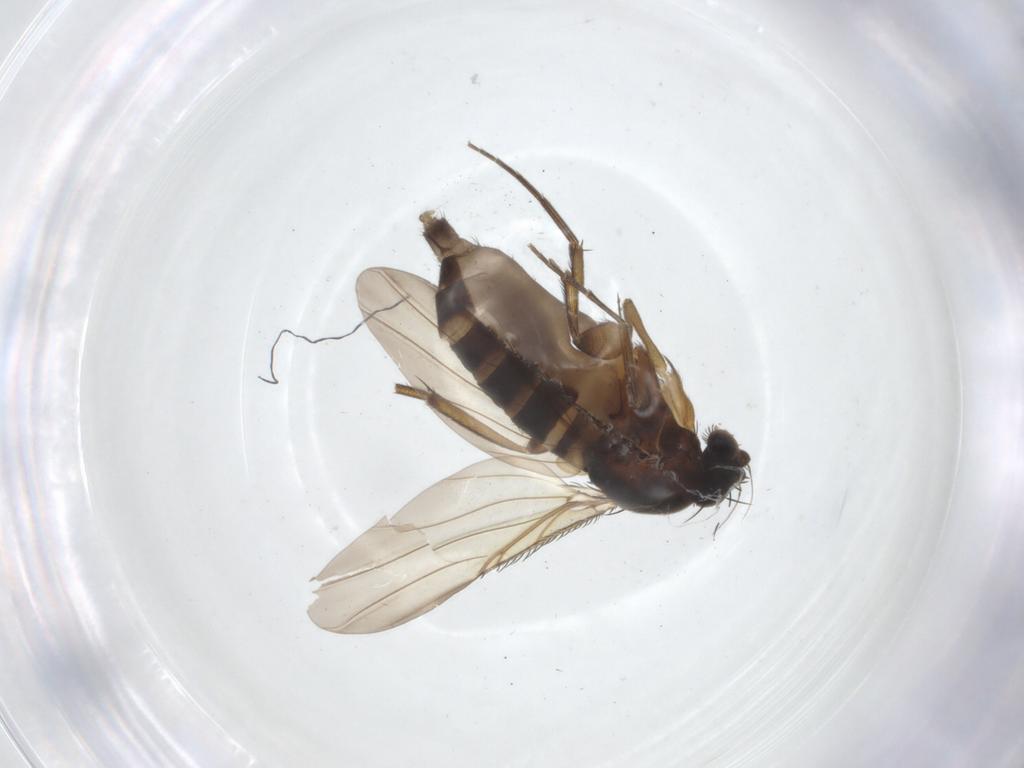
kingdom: Animalia
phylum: Arthropoda
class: Insecta
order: Diptera
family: Phoridae
